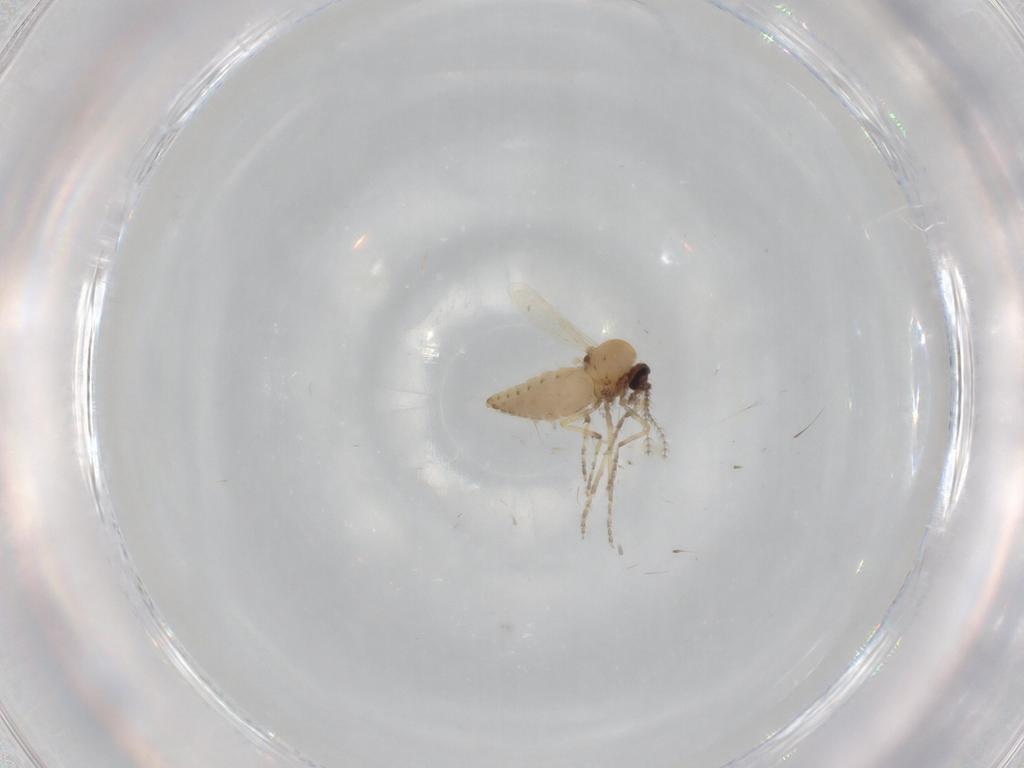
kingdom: Animalia
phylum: Arthropoda
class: Insecta
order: Diptera
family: Ceratopogonidae
